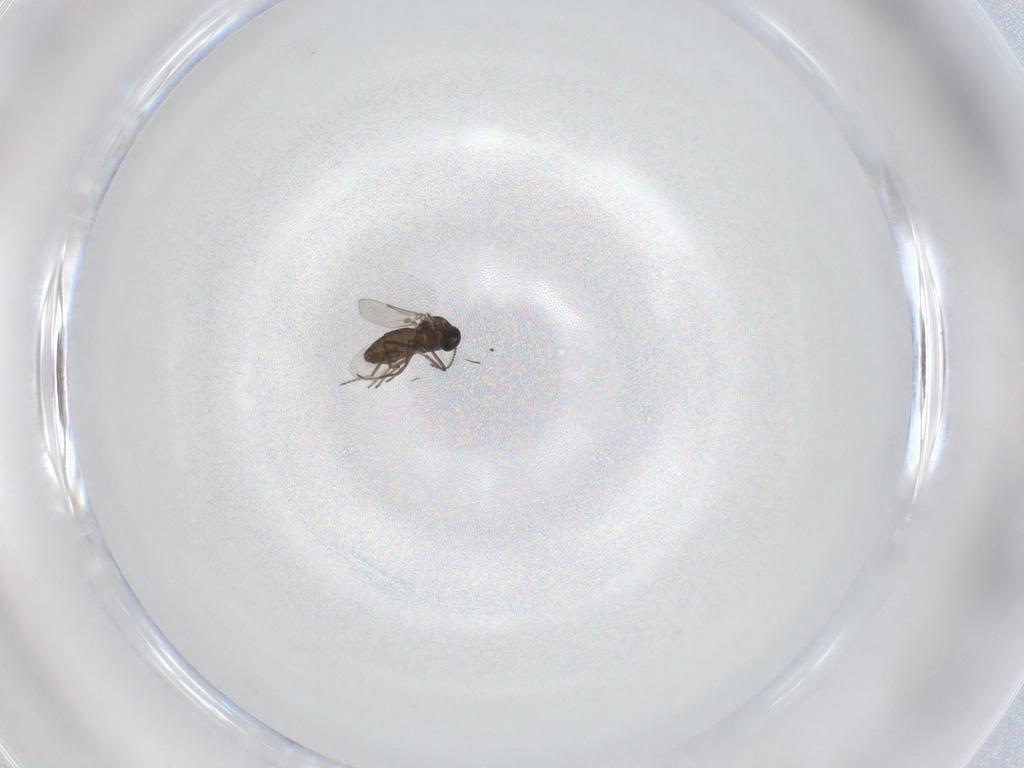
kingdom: Animalia
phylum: Arthropoda
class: Insecta
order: Diptera
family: Ceratopogonidae
